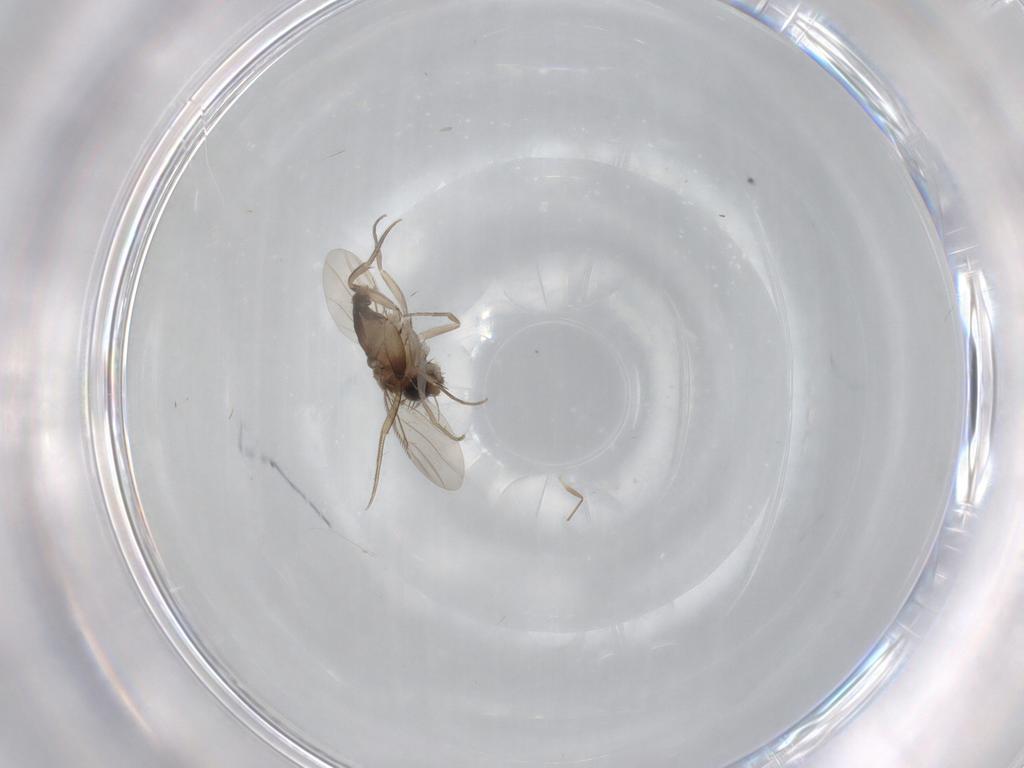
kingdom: Animalia
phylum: Arthropoda
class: Insecta
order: Diptera
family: Phoridae
